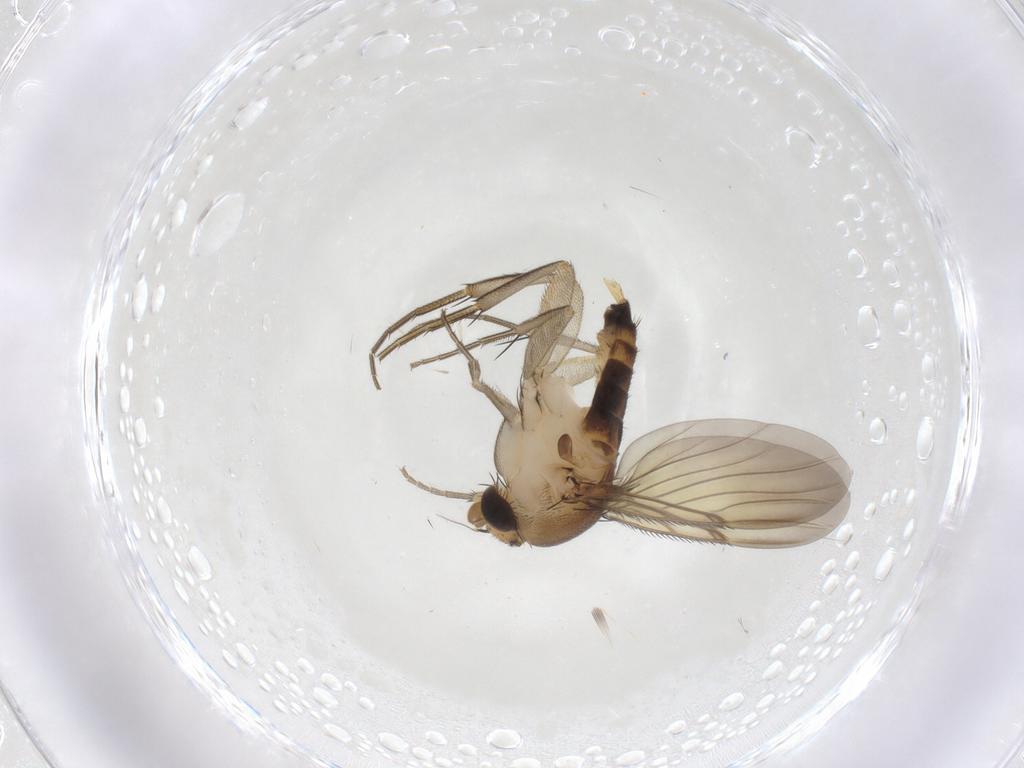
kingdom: Animalia
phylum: Arthropoda
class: Insecta
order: Diptera
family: Phoridae
